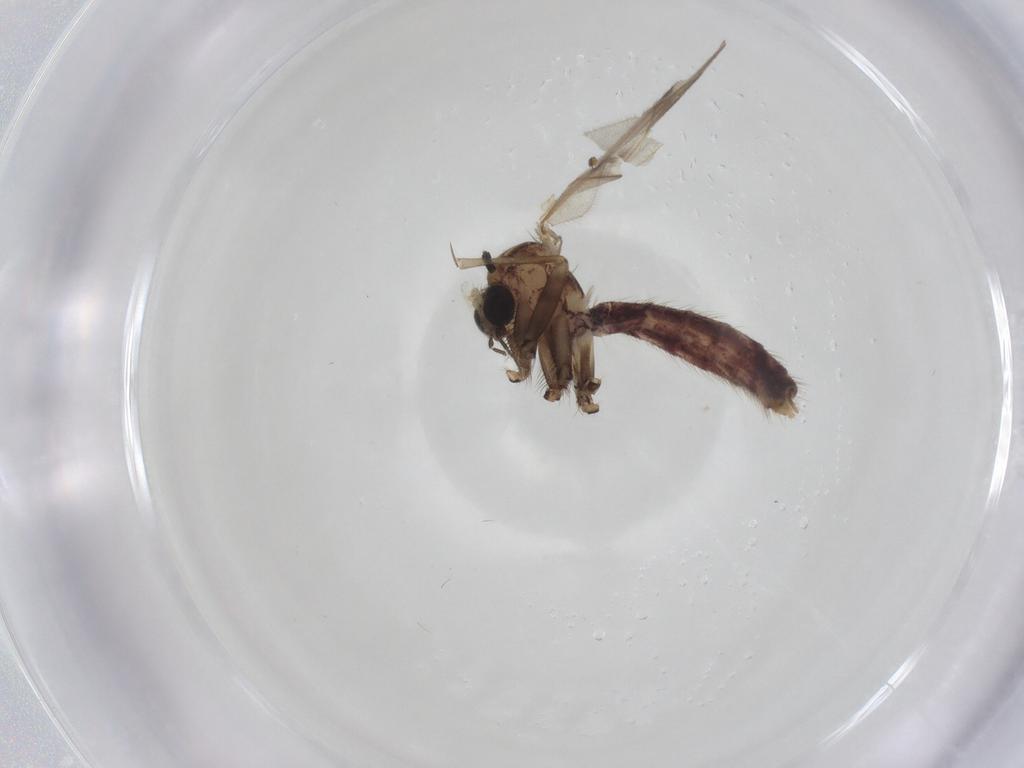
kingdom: Animalia
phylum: Arthropoda
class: Insecta
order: Diptera
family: Mycetophilidae
